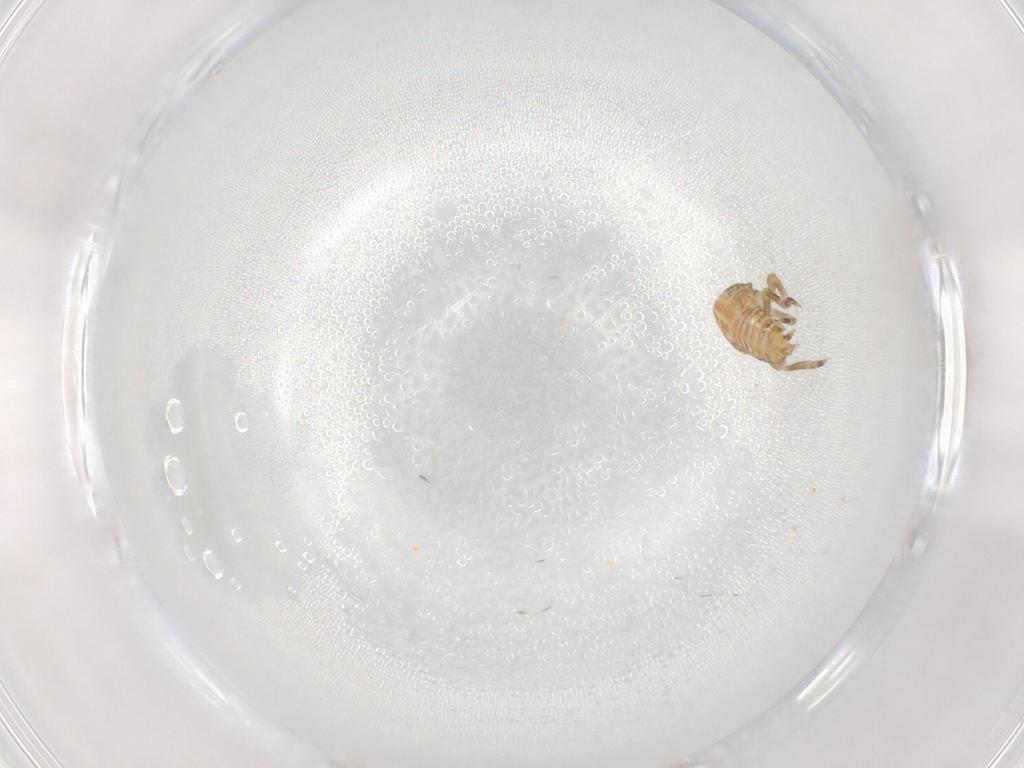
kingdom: Animalia
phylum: Arthropoda
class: Insecta
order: Hemiptera
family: Flatidae
